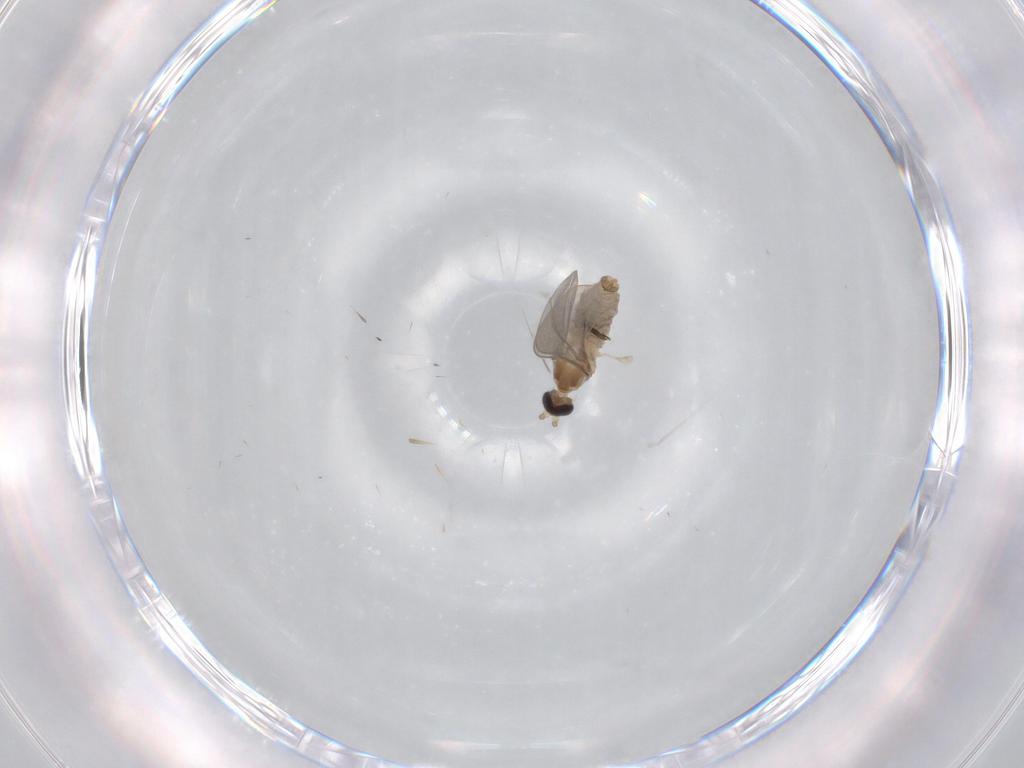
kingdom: Animalia
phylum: Arthropoda
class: Insecta
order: Diptera
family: Cecidomyiidae
